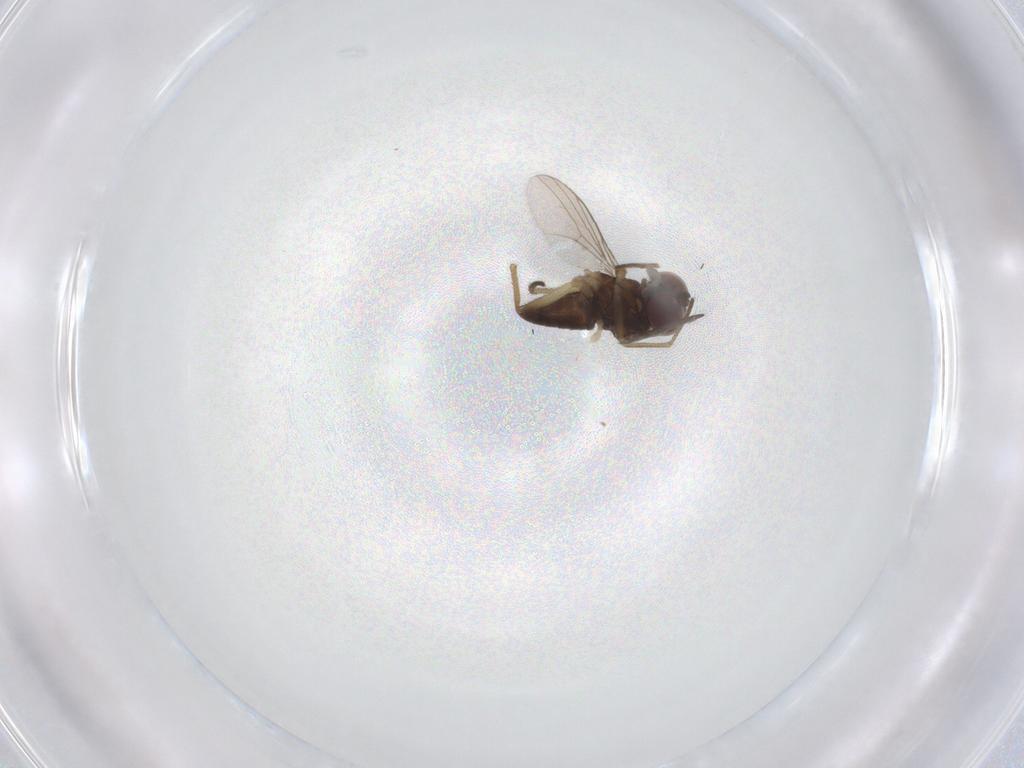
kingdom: Animalia
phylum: Arthropoda
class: Insecta
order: Diptera
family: Dolichopodidae
